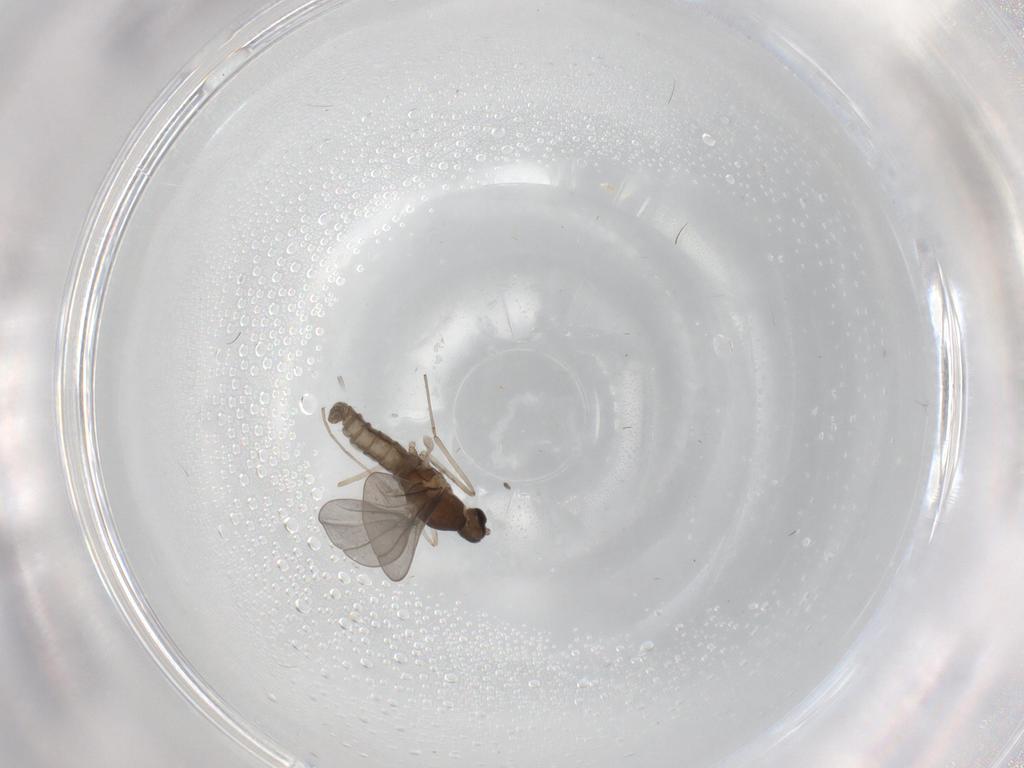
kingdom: Animalia
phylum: Arthropoda
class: Insecta
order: Diptera
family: Cecidomyiidae
